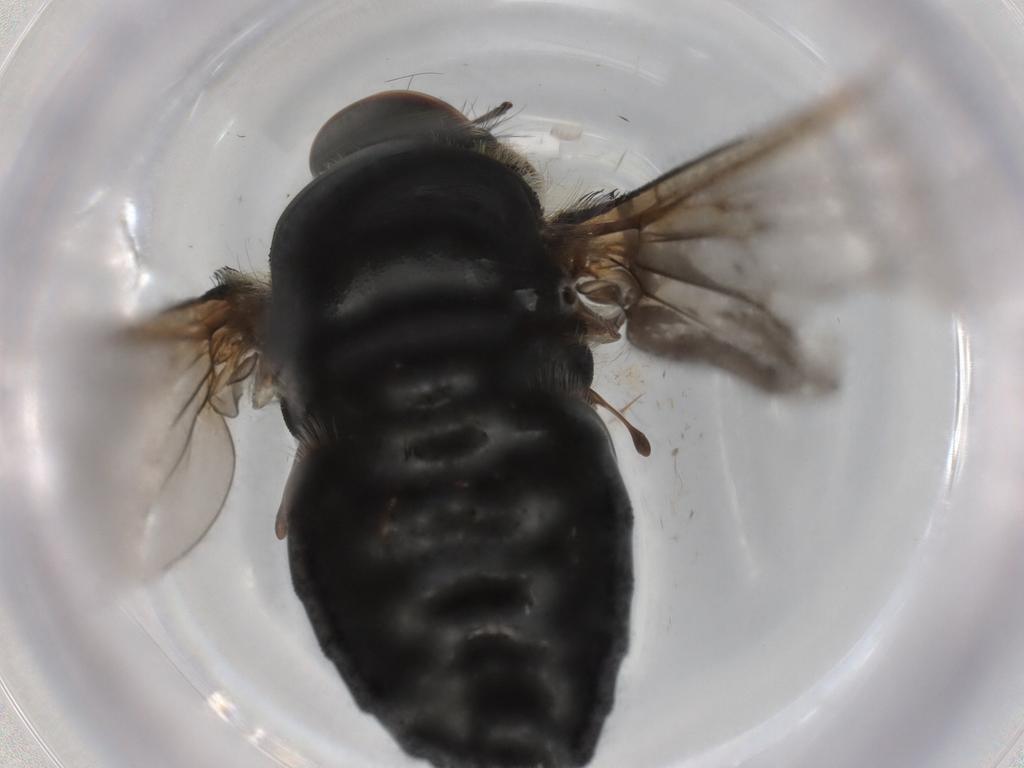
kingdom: Animalia
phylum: Arthropoda
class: Insecta
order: Diptera
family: Bombyliidae
